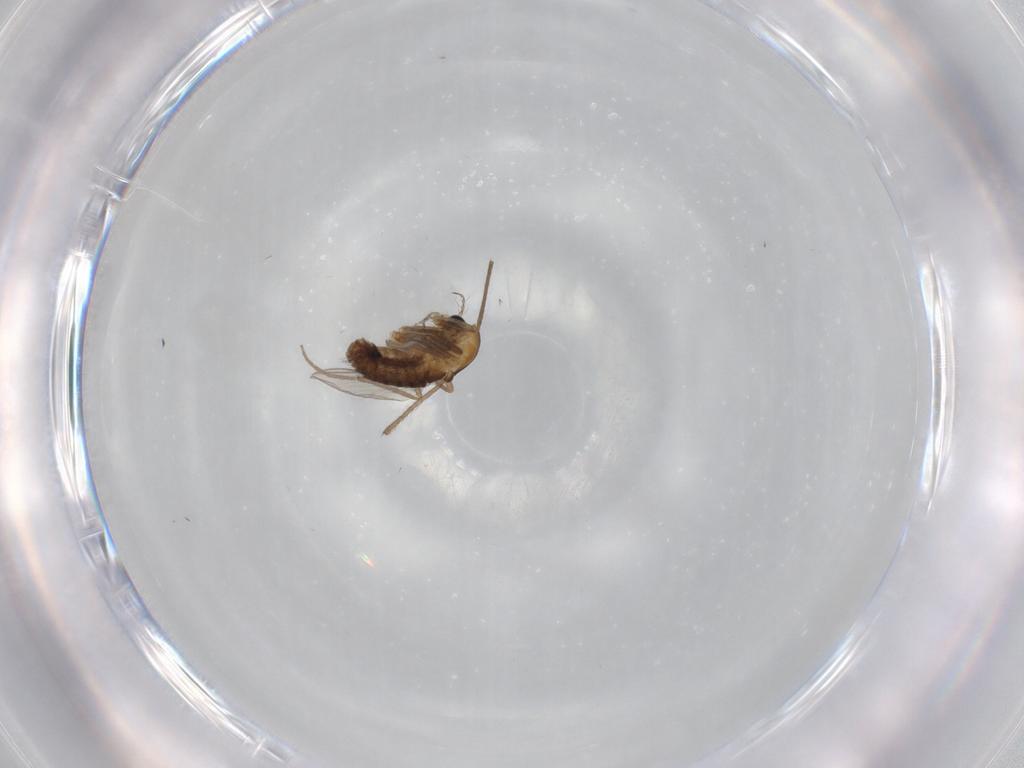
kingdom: Animalia
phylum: Arthropoda
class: Insecta
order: Diptera
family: Chironomidae
